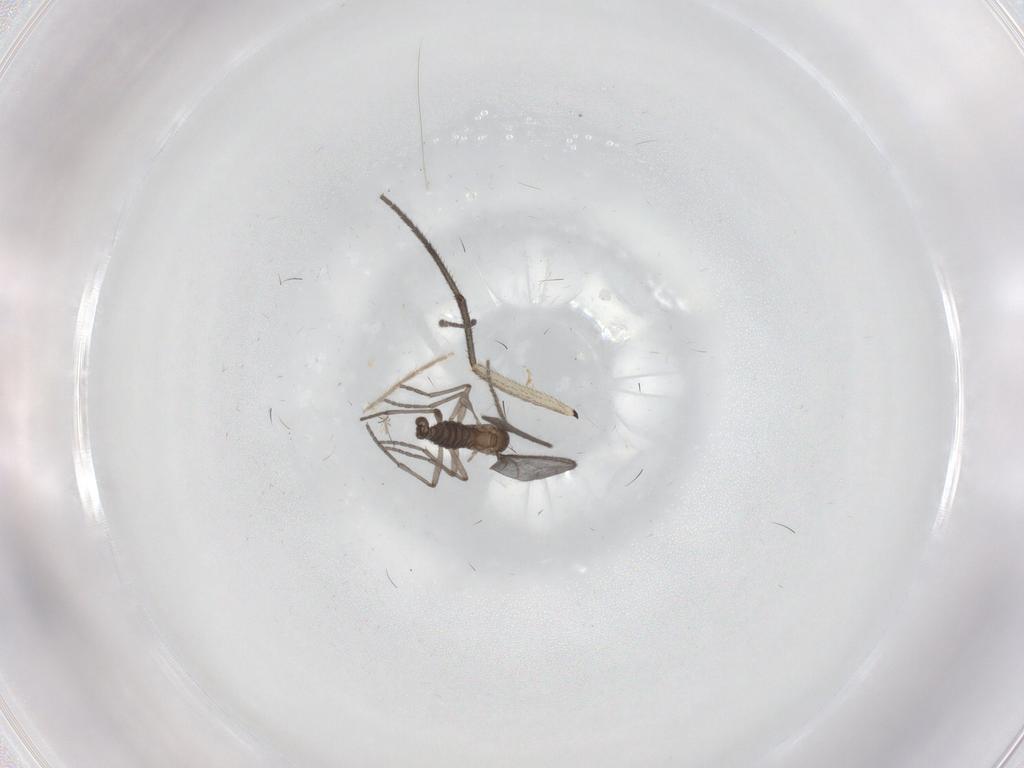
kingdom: Animalia
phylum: Arthropoda
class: Insecta
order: Diptera
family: Sciaridae
